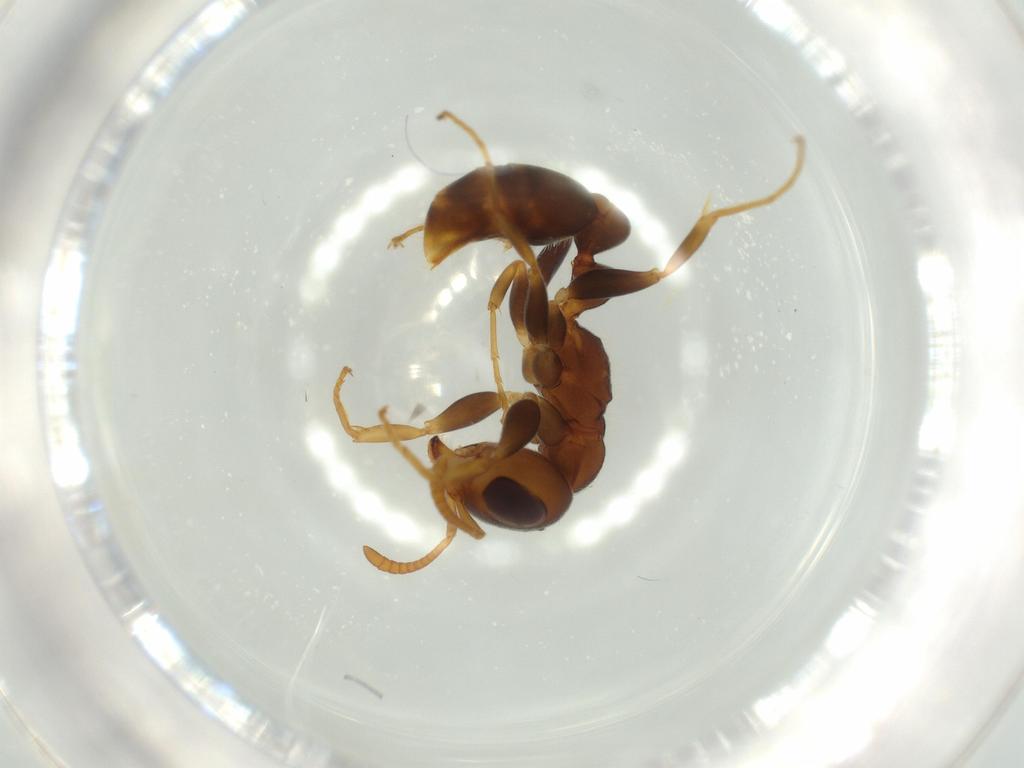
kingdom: Animalia
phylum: Arthropoda
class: Insecta
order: Hymenoptera
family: Formicidae
